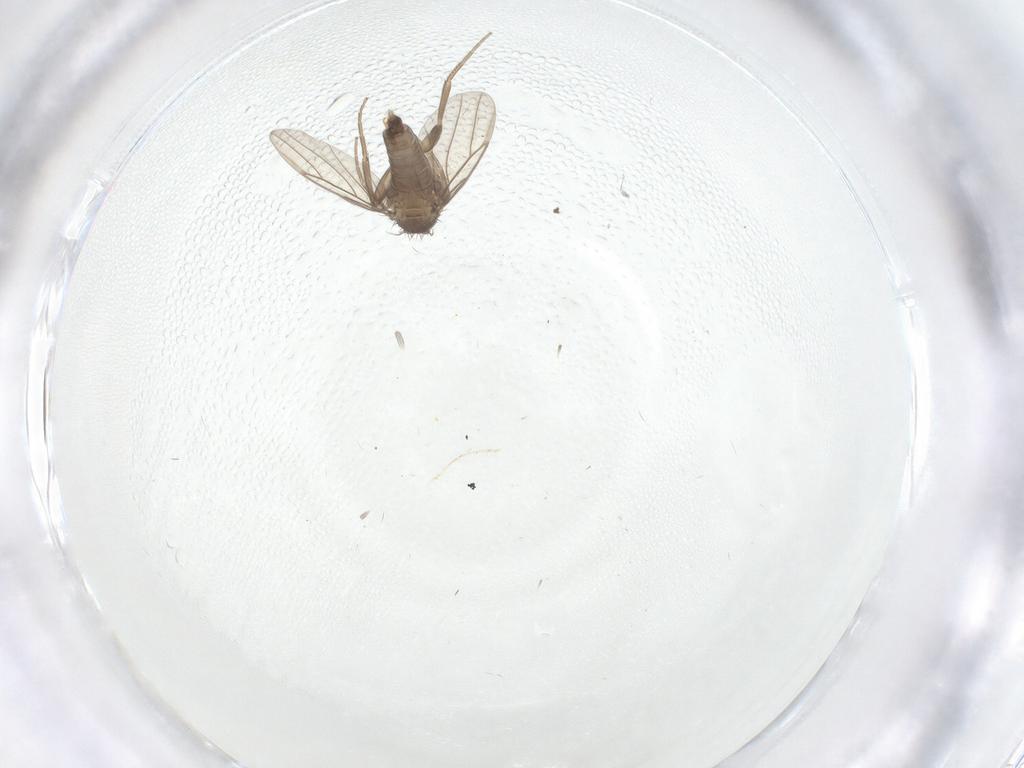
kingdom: Animalia
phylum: Arthropoda
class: Insecta
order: Diptera
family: Phoridae
